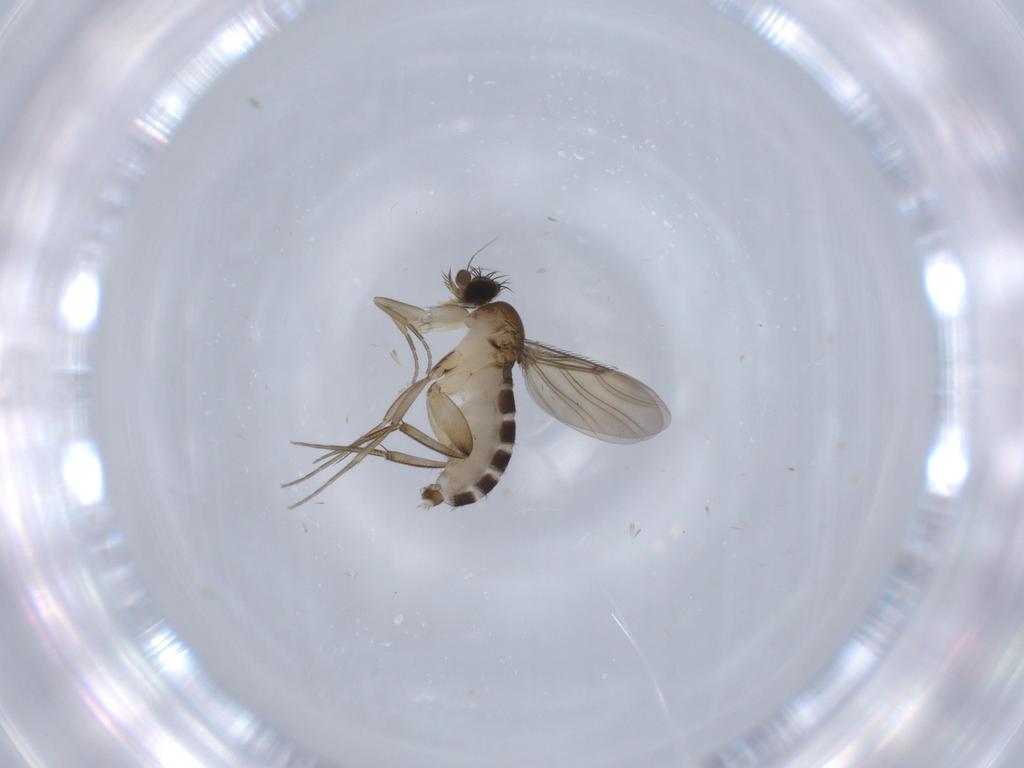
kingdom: Animalia
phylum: Arthropoda
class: Insecta
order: Diptera
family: Phoridae
